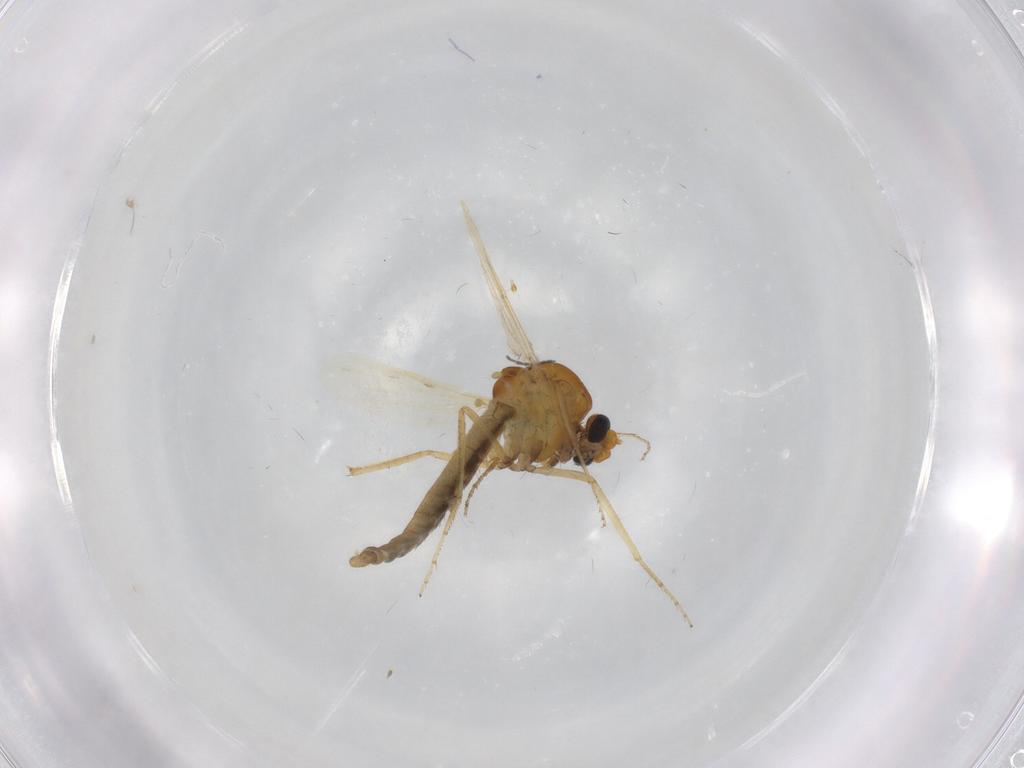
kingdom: Animalia
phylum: Arthropoda
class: Insecta
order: Diptera
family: Ceratopogonidae
